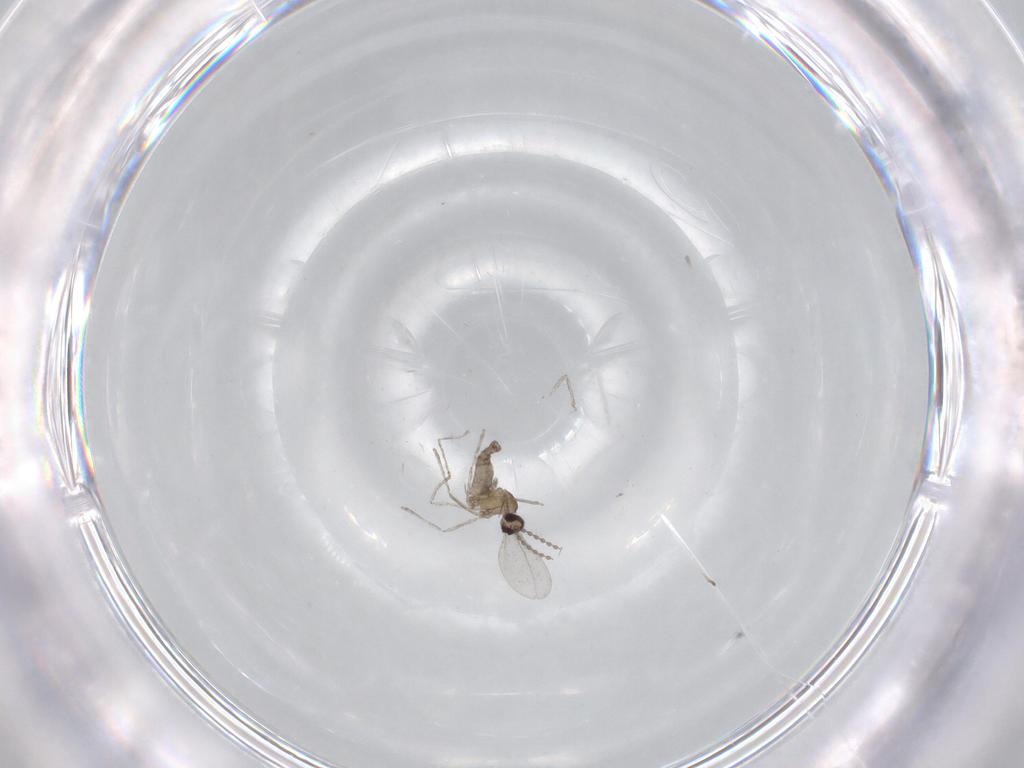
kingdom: Animalia
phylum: Arthropoda
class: Insecta
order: Diptera
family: Cecidomyiidae
